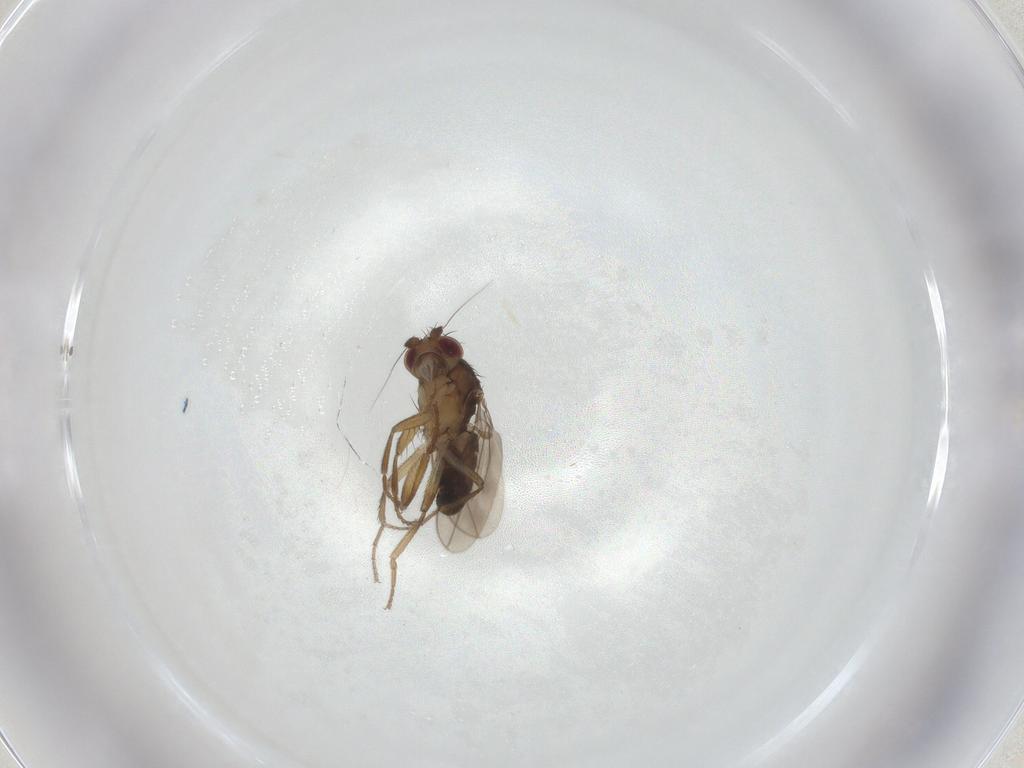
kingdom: Animalia
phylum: Arthropoda
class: Insecta
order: Diptera
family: Sphaeroceridae
